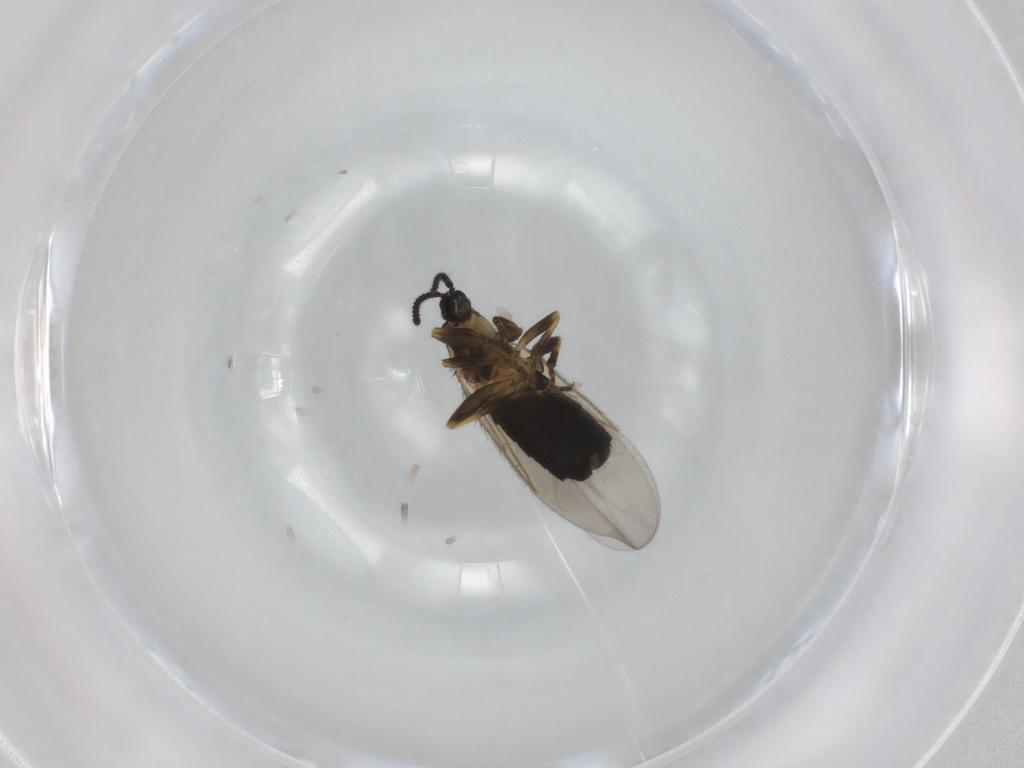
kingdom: Animalia
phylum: Arthropoda
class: Insecta
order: Diptera
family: Scatopsidae
